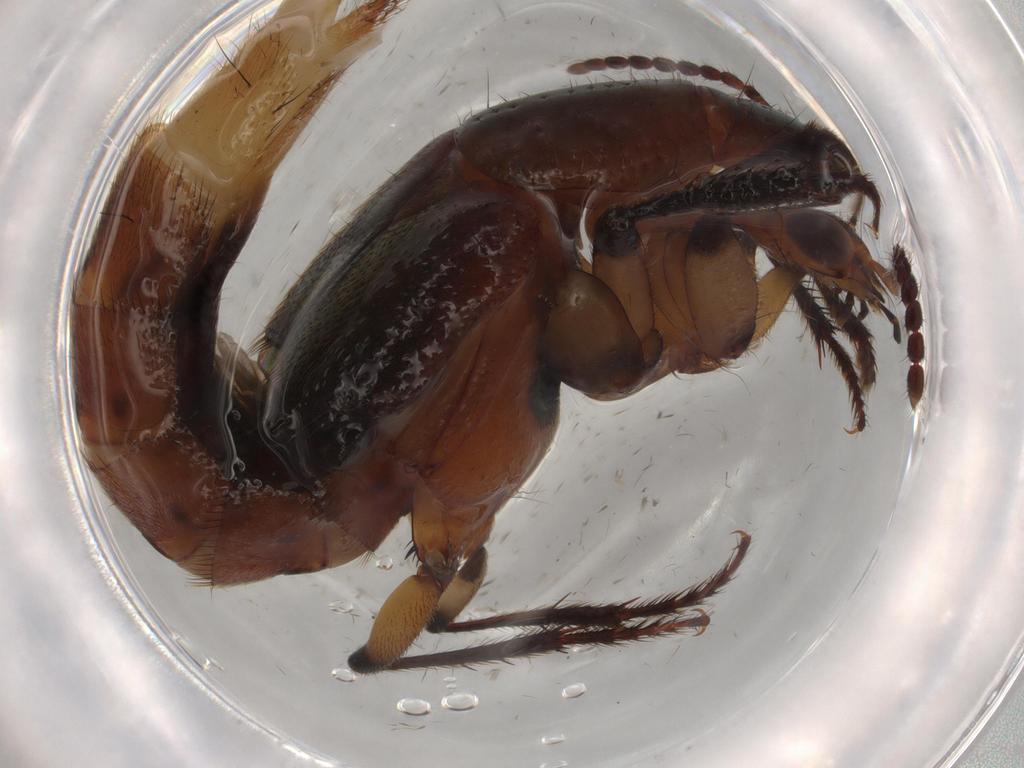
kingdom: Animalia
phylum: Arthropoda
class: Insecta
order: Coleoptera
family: Staphylinidae
